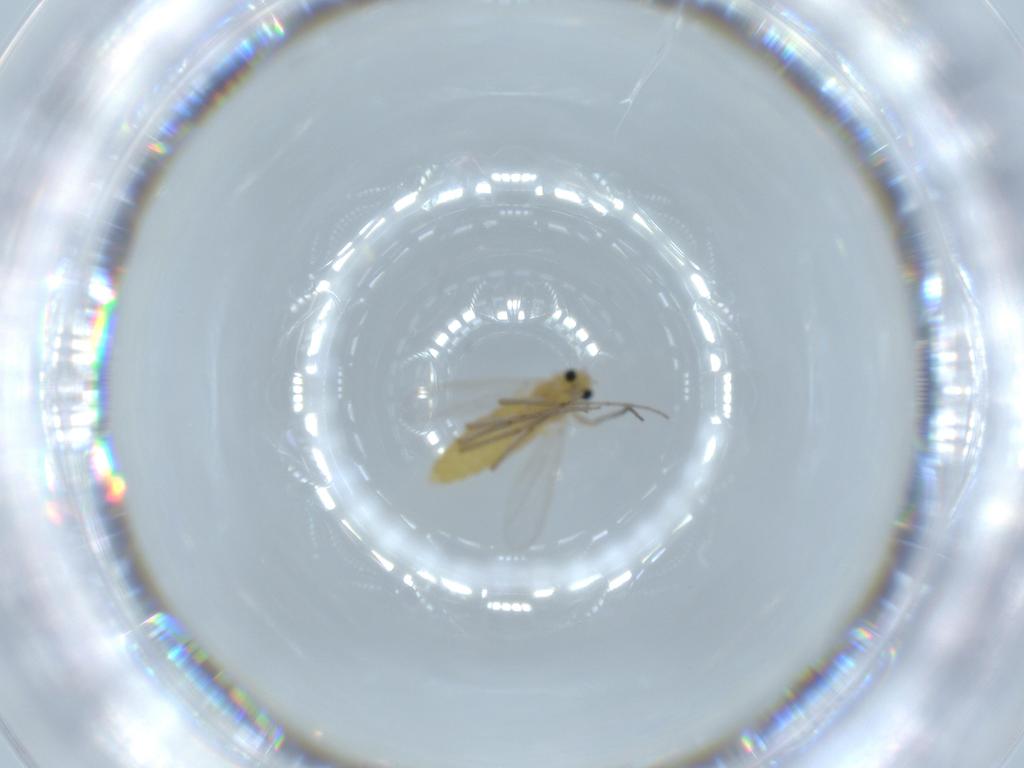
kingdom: Animalia
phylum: Arthropoda
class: Insecta
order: Diptera
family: Chironomidae
